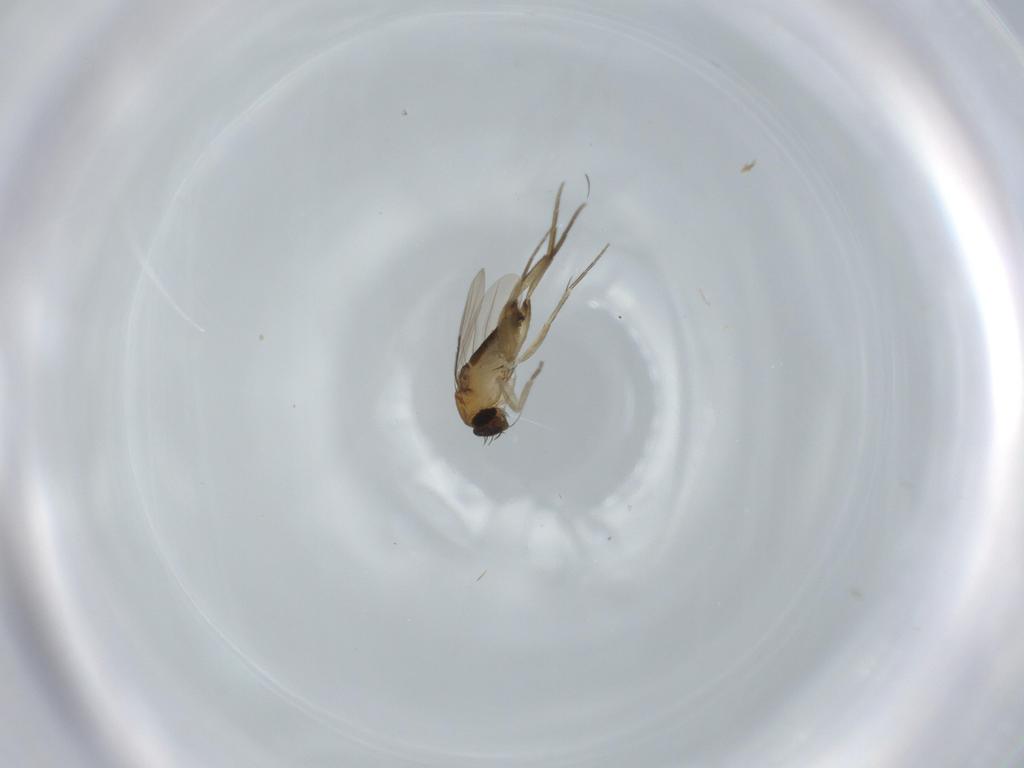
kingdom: Animalia
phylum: Arthropoda
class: Insecta
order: Diptera
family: Phoridae
